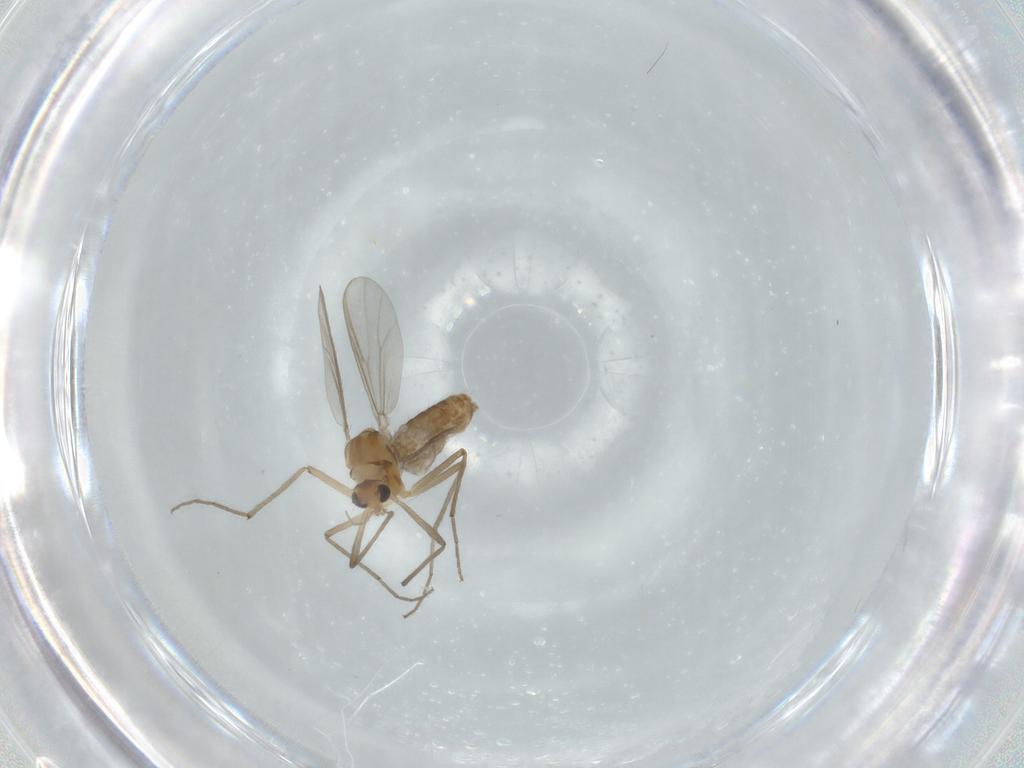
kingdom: Animalia
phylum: Arthropoda
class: Insecta
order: Diptera
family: Chironomidae
